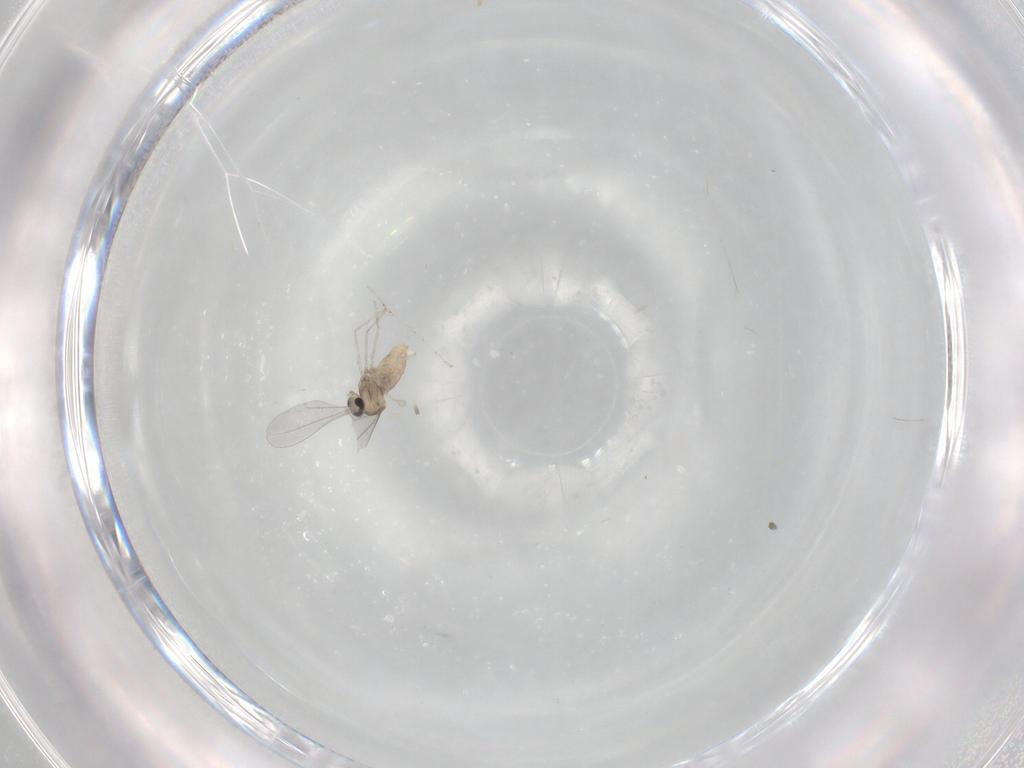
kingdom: Animalia
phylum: Arthropoda
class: Insecta
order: Diptera
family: Cecidomyiidae
